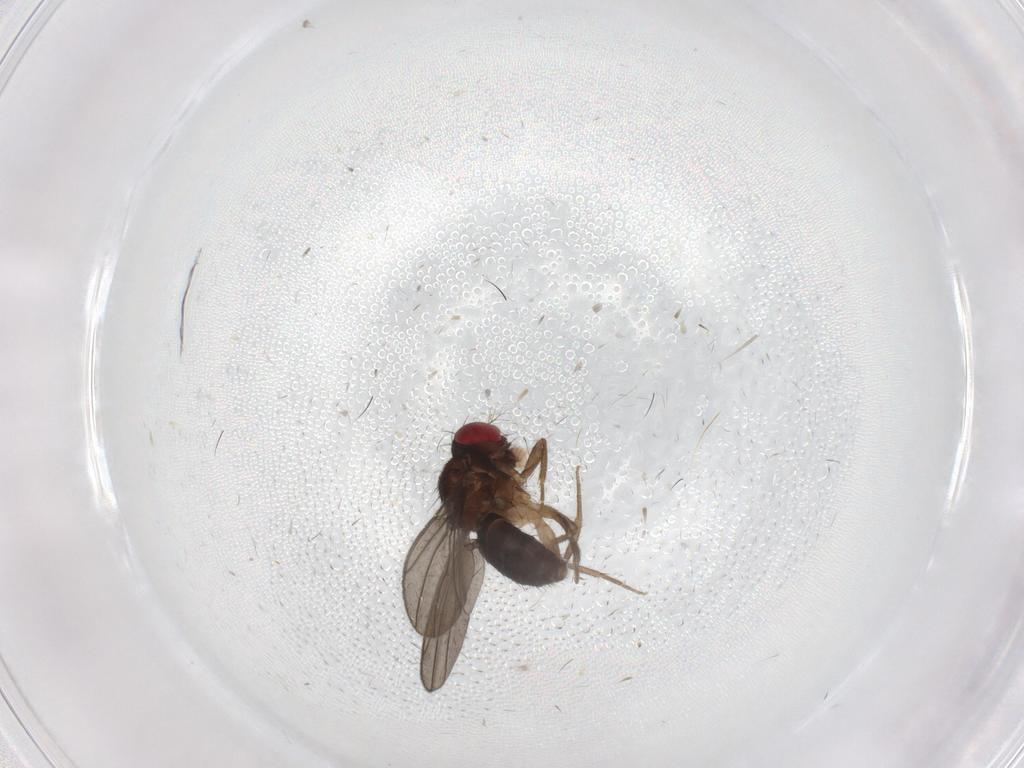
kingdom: Animalia
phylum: Arthropoda
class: Insecta
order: Diptera
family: Drosophilidae
